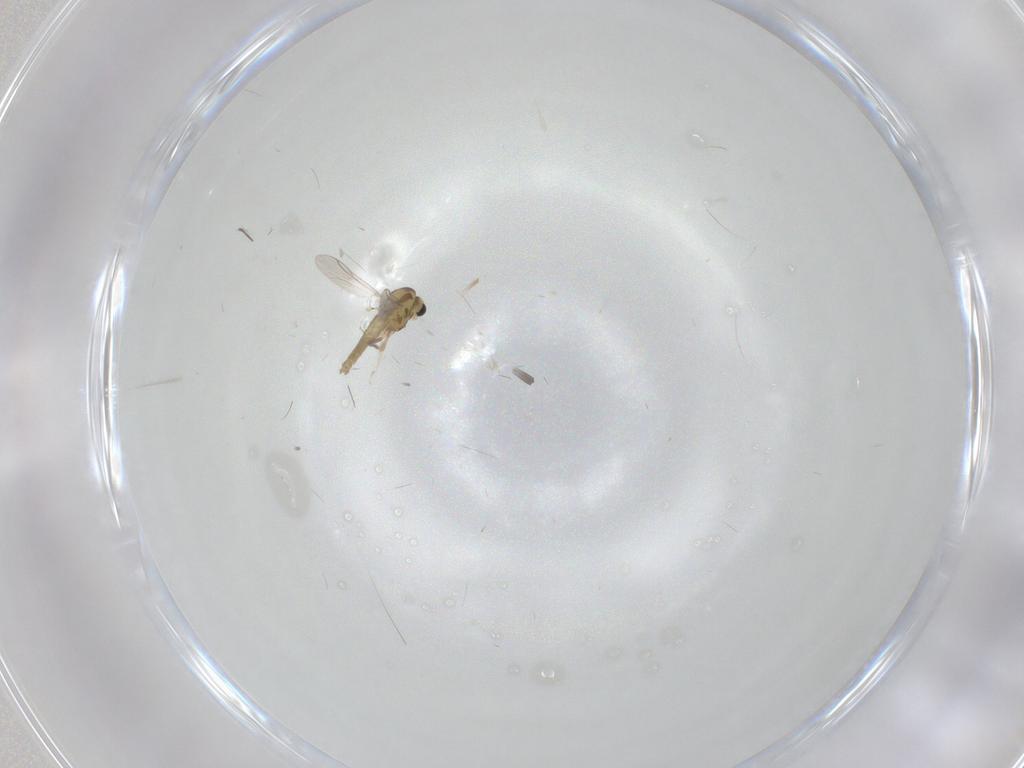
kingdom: Animalia
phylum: Arthropoda
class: Insecta
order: Diptera
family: Chironomidae
